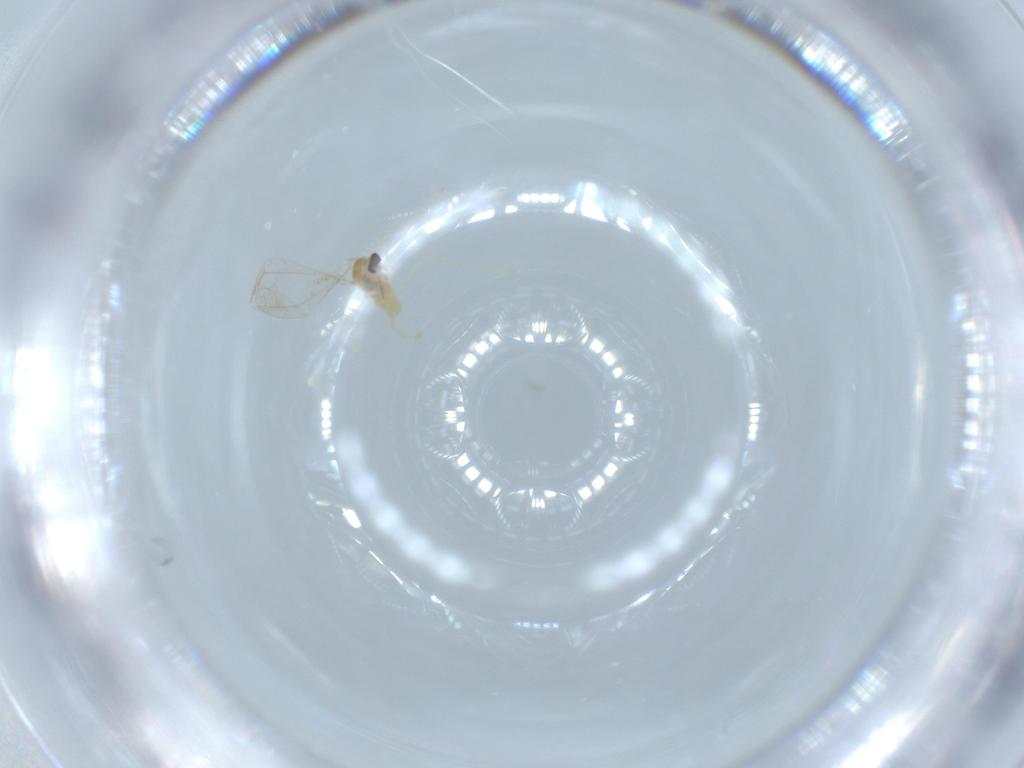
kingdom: Animalia
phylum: Arthropoda
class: Insecta
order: Diptera
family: Cecidomyiidae
